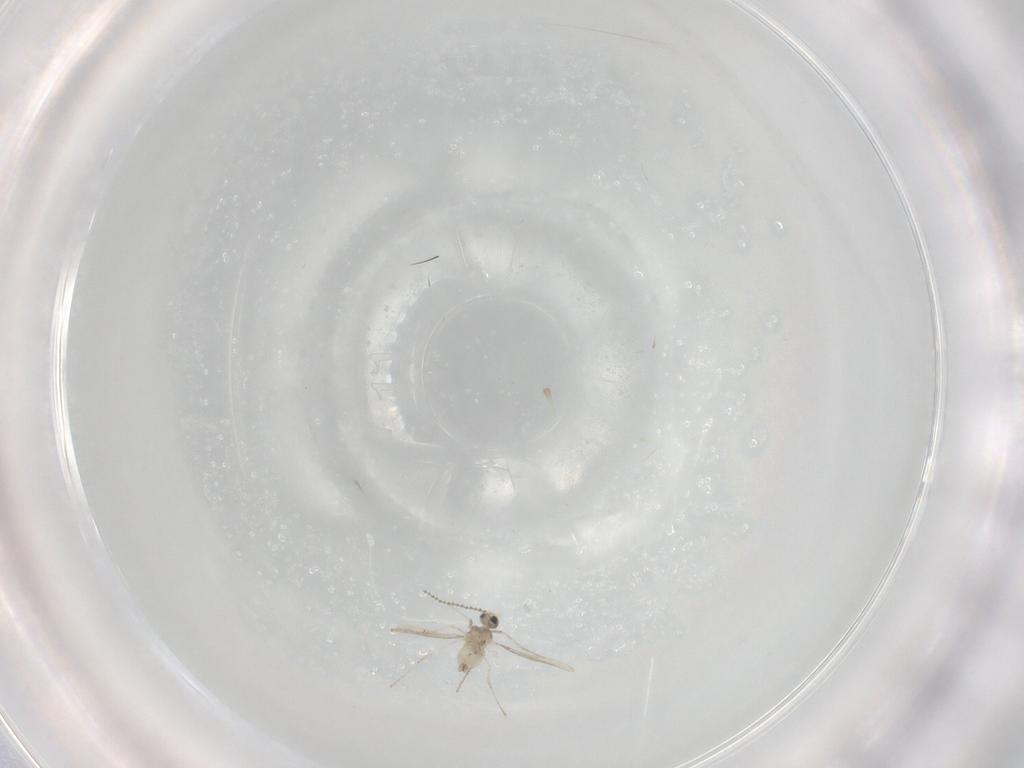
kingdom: Animalia
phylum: Arthropoda
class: Insecta
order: Diptera
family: Cecidomyiidae
